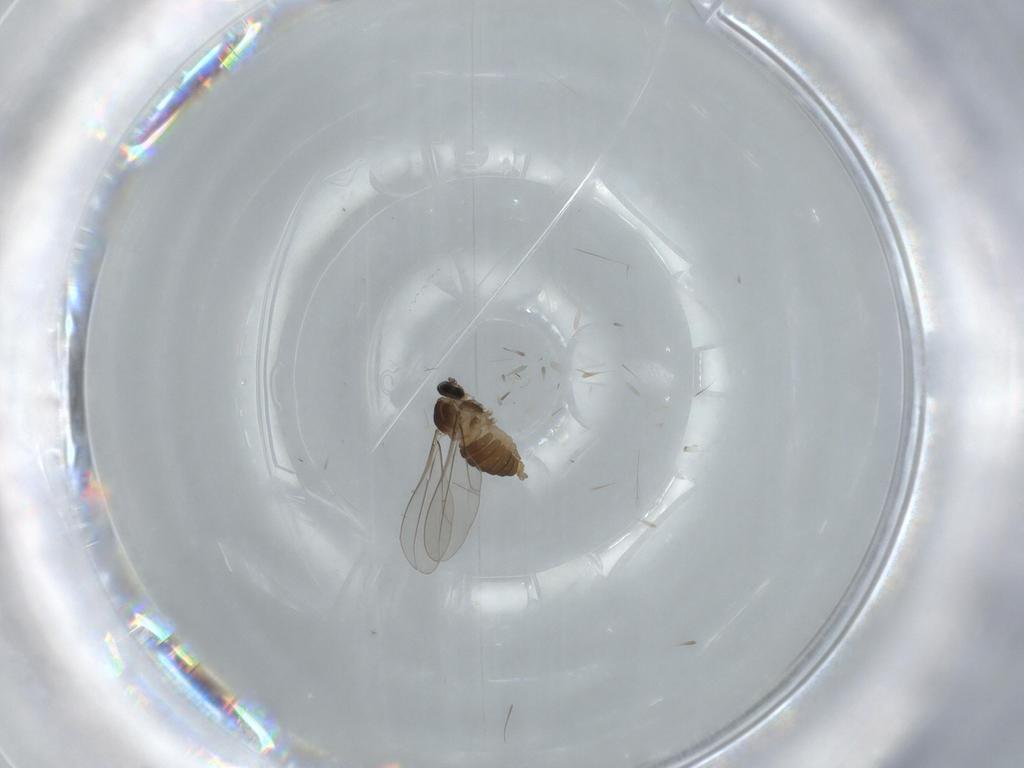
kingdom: Animalia
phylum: Arthropoda
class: Insecta
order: Diptera
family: Cecidomyiidae
